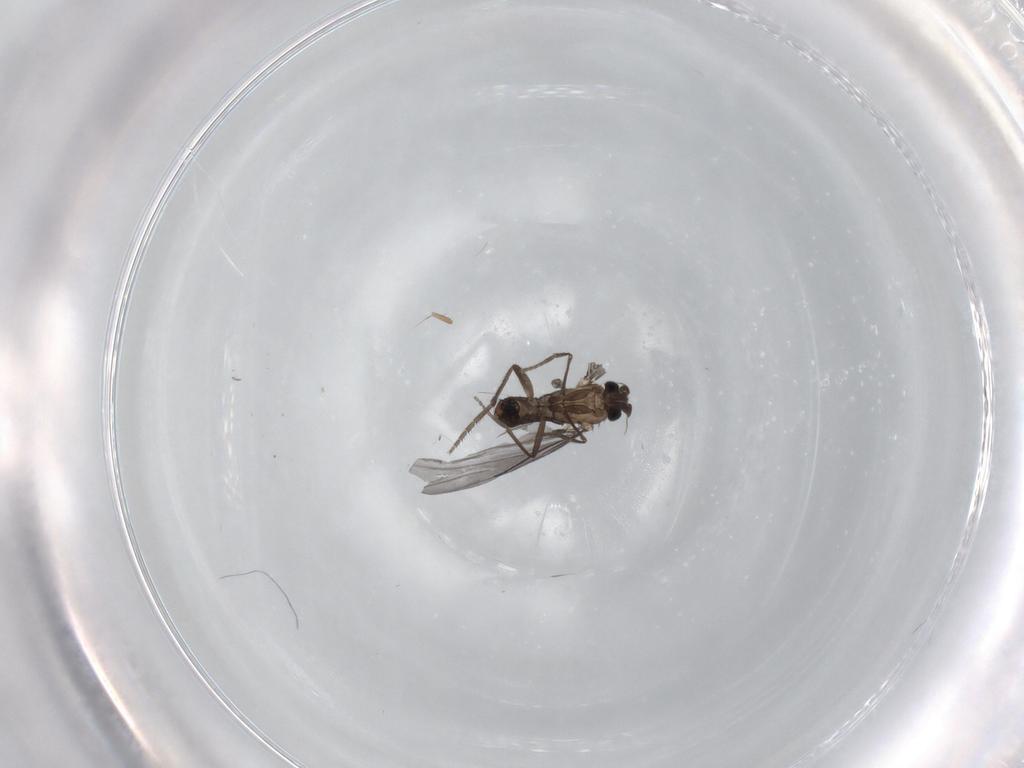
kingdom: Animalia
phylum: Arthropoda
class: Insecta
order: Diptera
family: Phoridae
